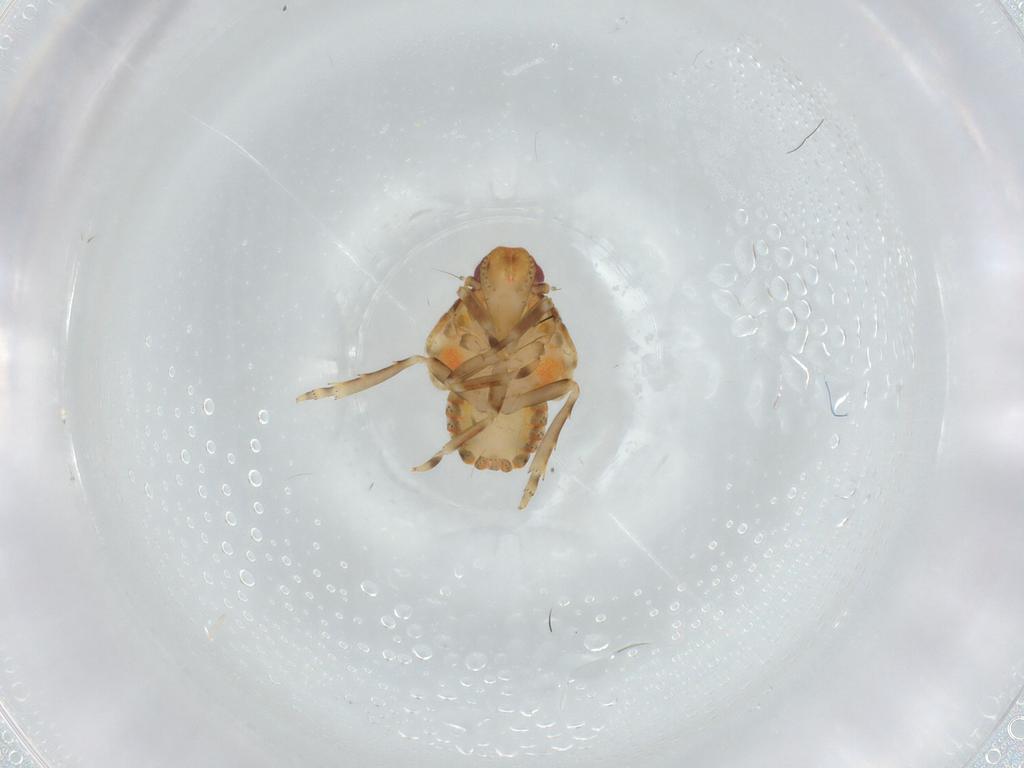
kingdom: Animalia
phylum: Arthropoda
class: Insecta
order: Hemiptera
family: Flatidae
